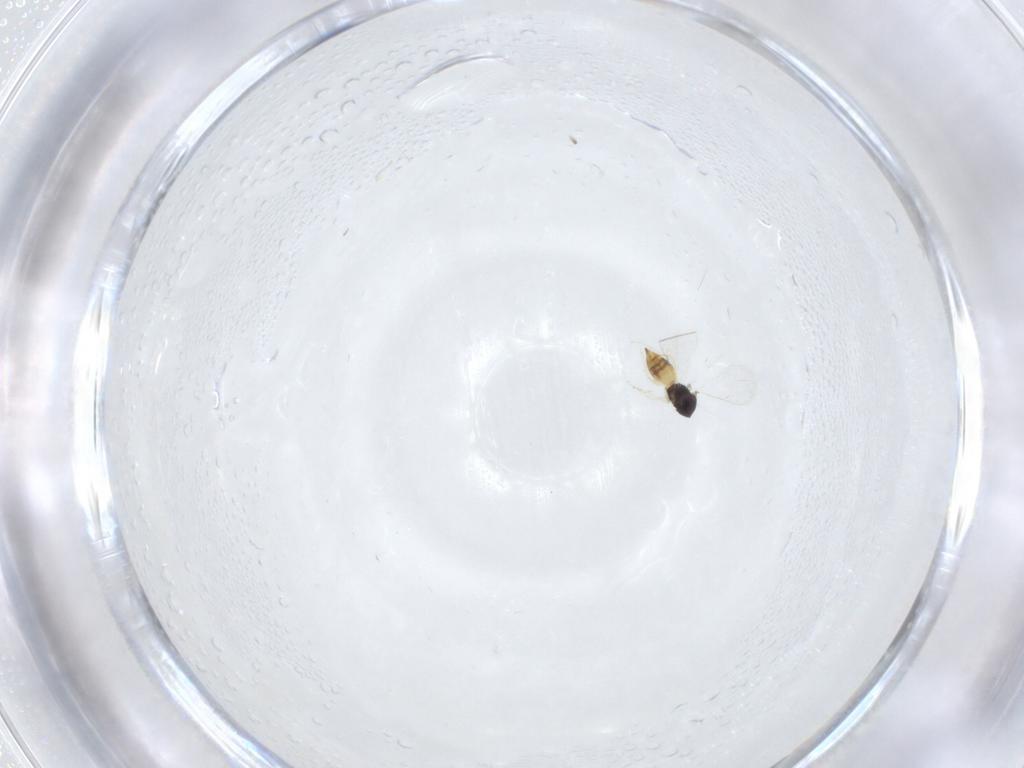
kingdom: Animalia
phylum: Arthropoda
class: Insecta
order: Hymenoptera
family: Eulophidae
